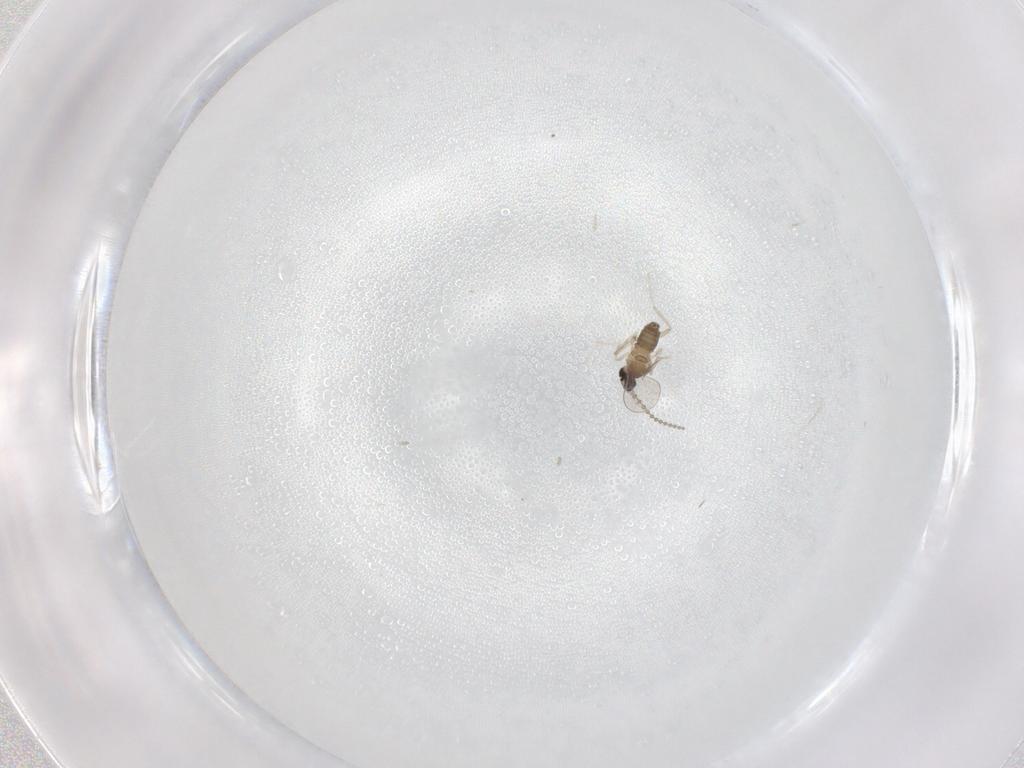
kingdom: Animalia
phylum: Arthropoda
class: Insecta
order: Diptera
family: Cecidomyiidae
